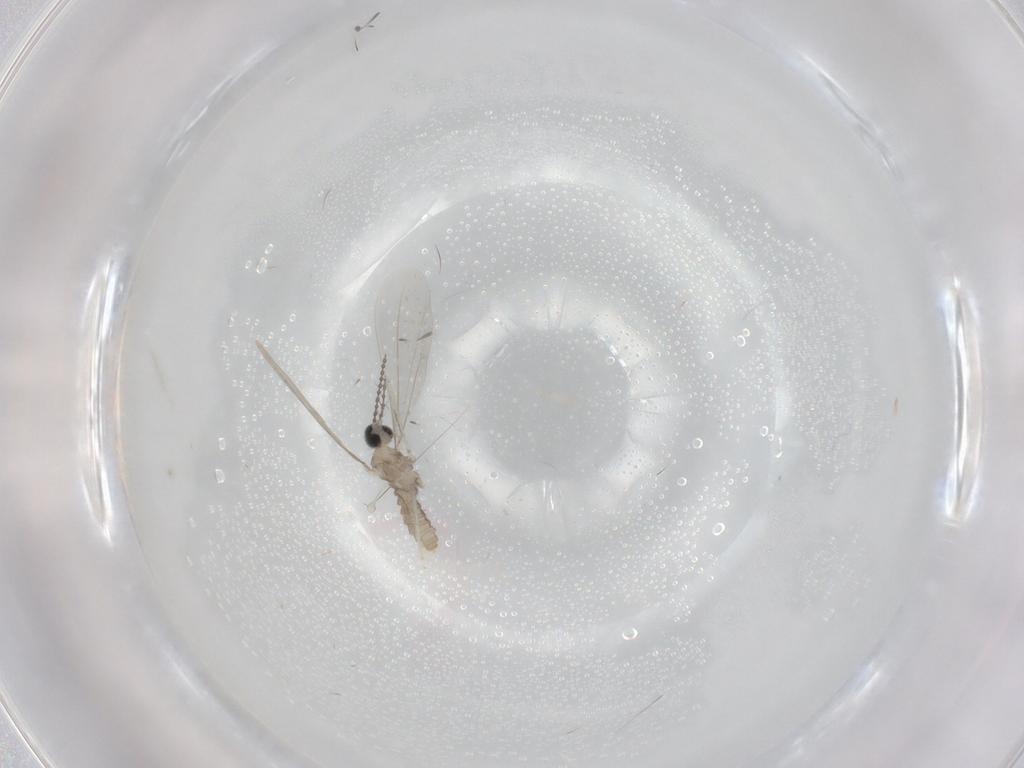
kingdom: Animalia
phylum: Arthropoda
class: Insecta
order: Diptera
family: Cecidomyiidae
